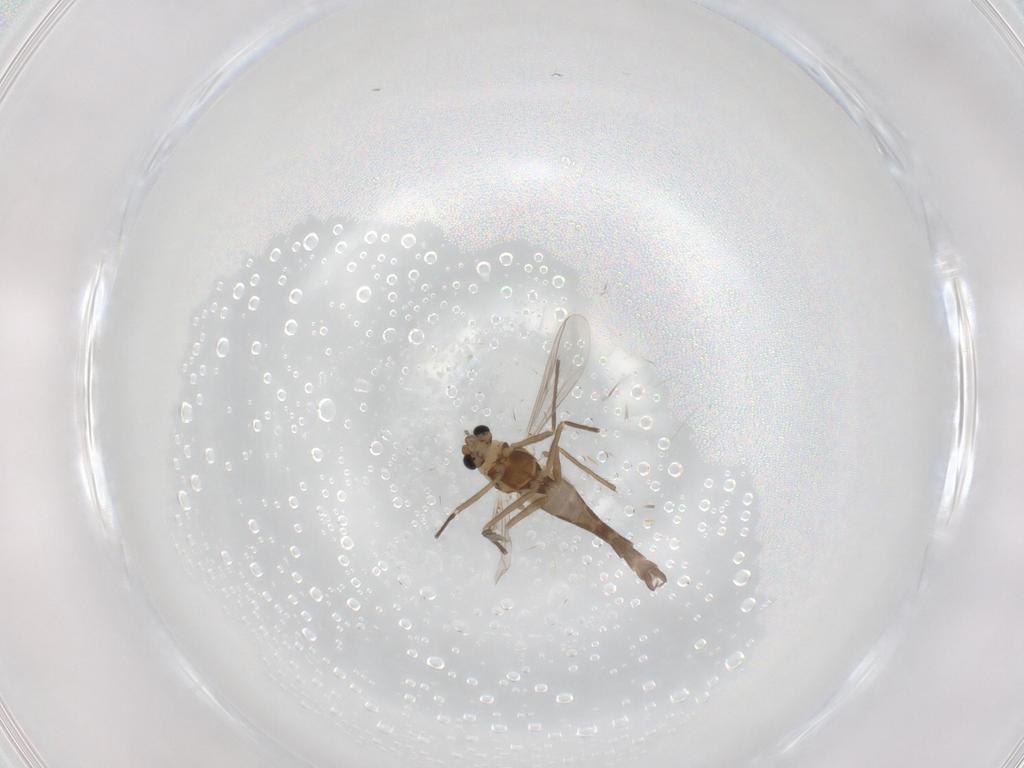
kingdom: Animalia
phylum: Arthropoda
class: Insecta
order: Diptera
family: Chironomidae
